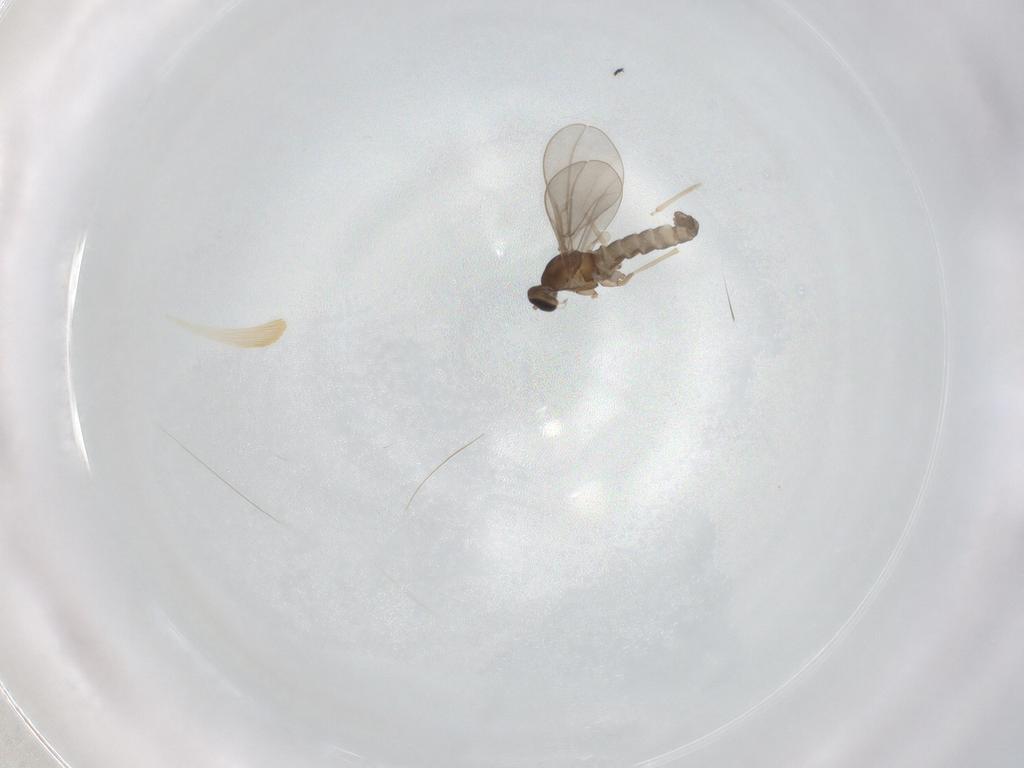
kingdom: Animalia
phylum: Arthropoda
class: Insecta
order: Diptera
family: Cecidomyiidae
